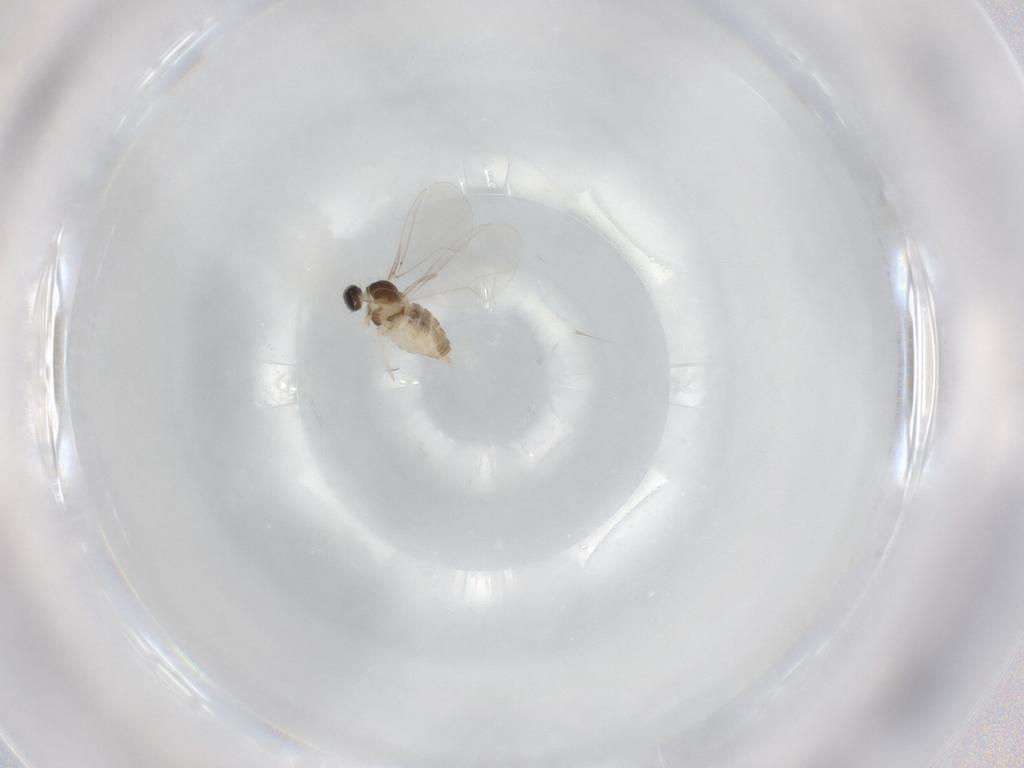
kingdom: Animalia
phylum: Arthropoda
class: Insecta
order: Diptera
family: Cecidomyiidae
